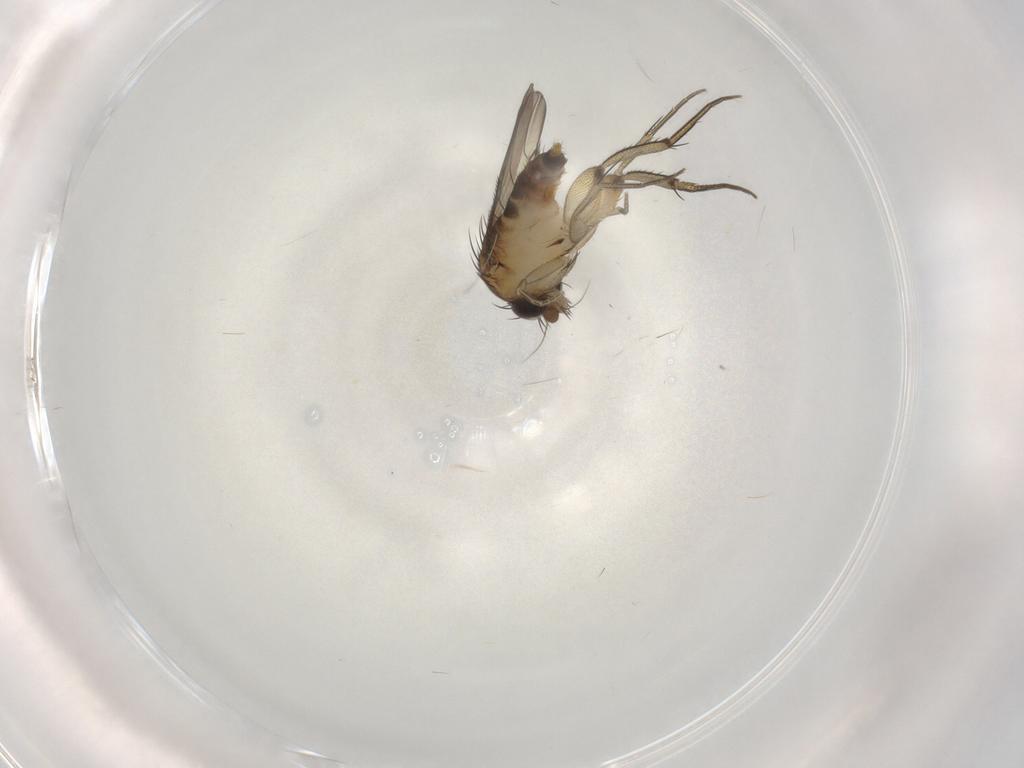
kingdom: Animalia
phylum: Arthropoda
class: Insecta
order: Diptera
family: Phoridae
